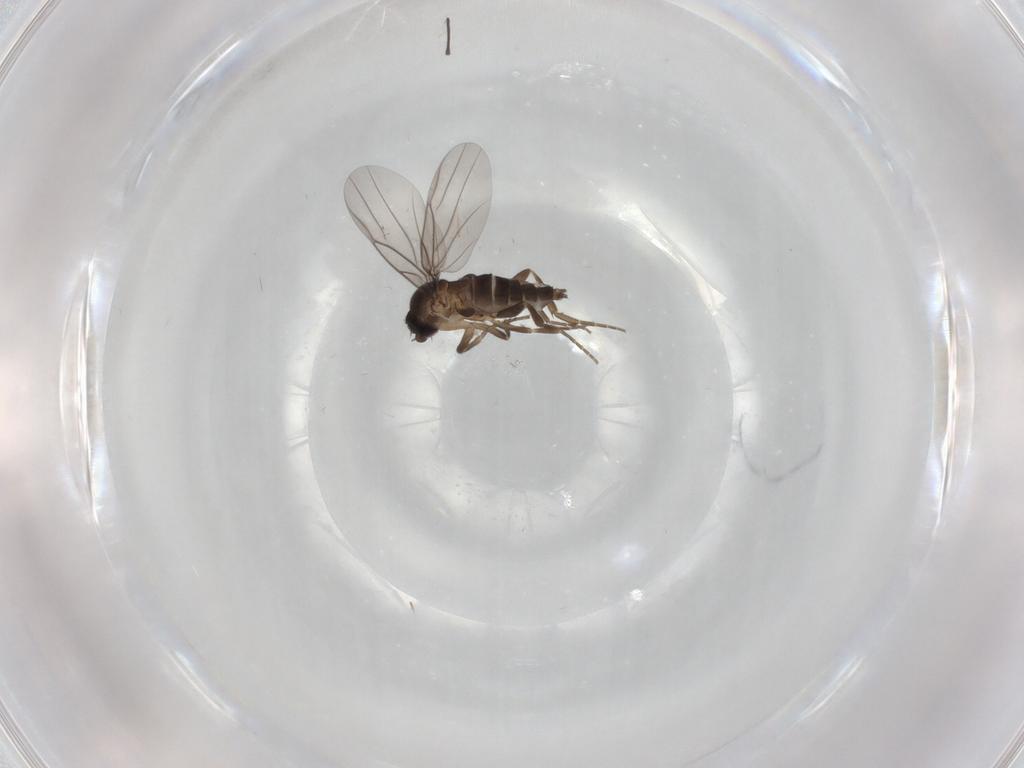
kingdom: Animalia
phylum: Arthropoda
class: Insecta
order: Diptera
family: Phoridae
